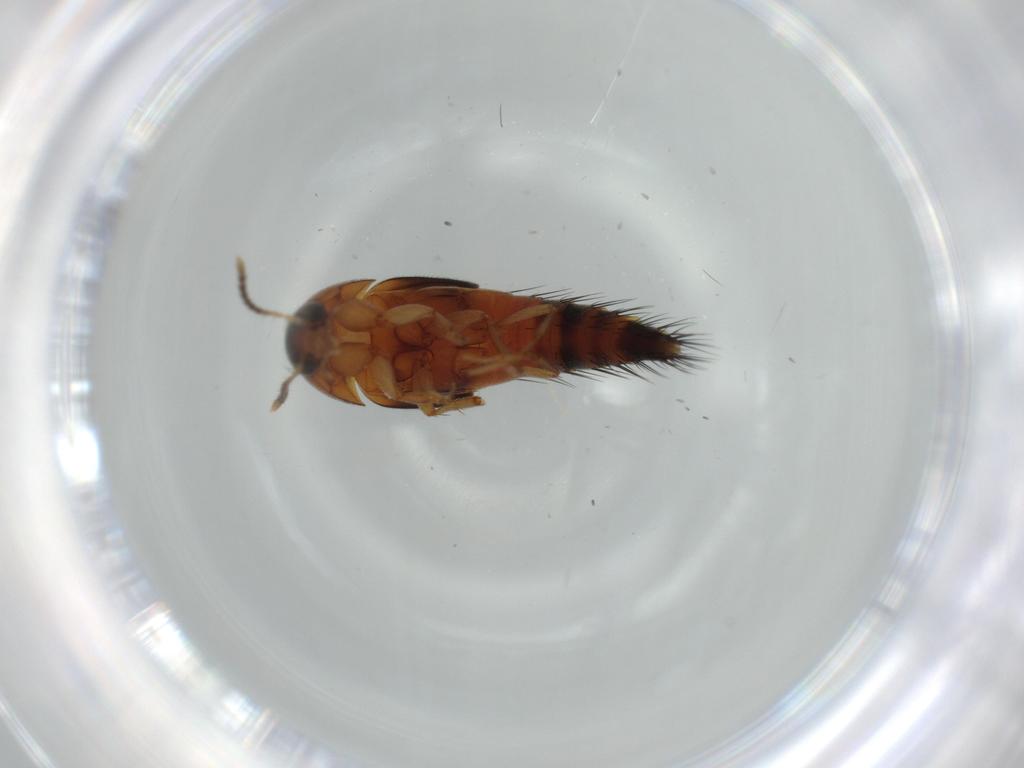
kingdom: Animalia
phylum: Arthropoda
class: Insecta
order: Coleoptera
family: Staphylinidae
